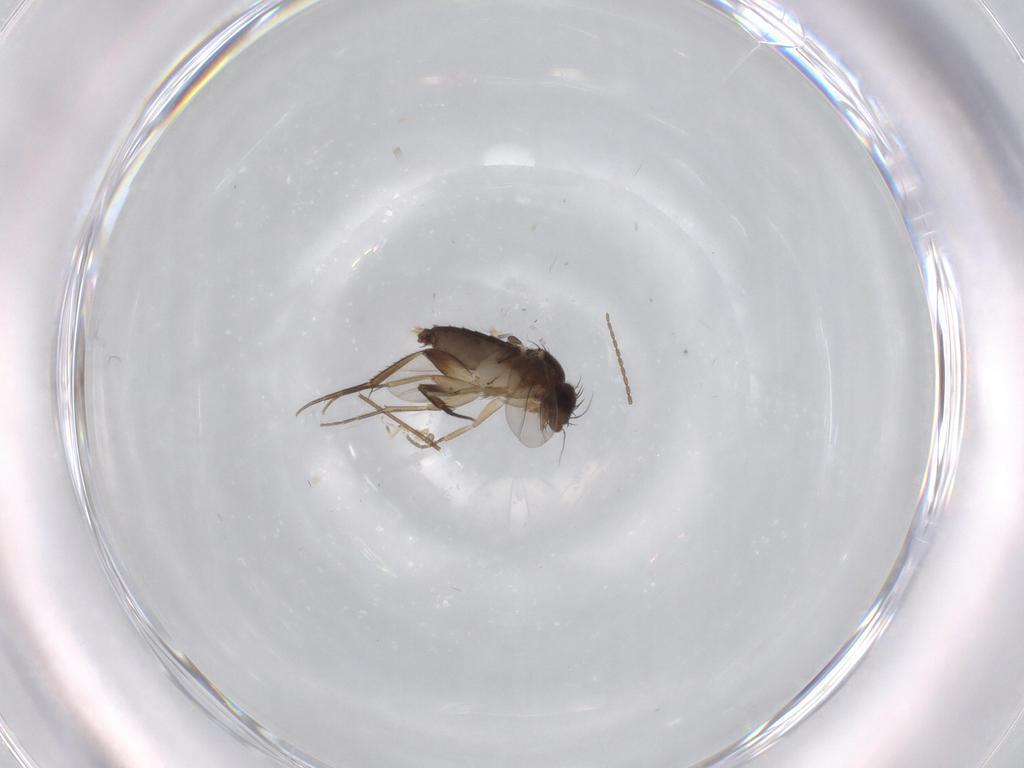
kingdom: Animalia
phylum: Arthropoda
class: Insecta
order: Diptera
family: Phoridae
